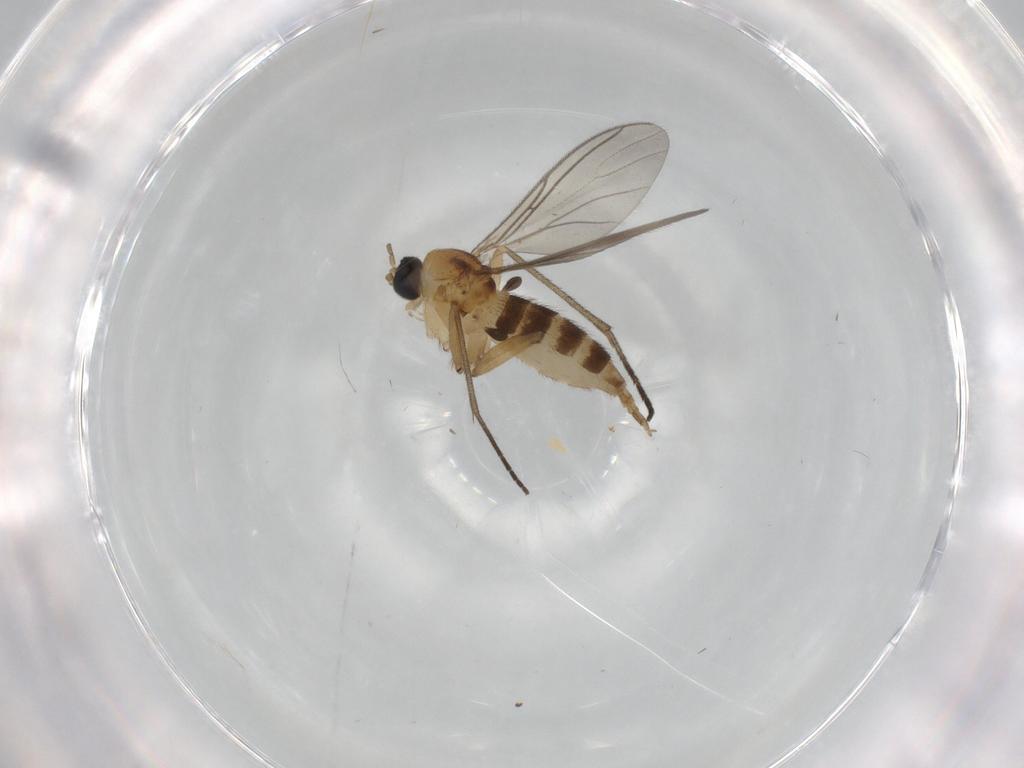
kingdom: Animalia
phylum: Arthropoda
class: Insecta
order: Diptera
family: Sciaridae
